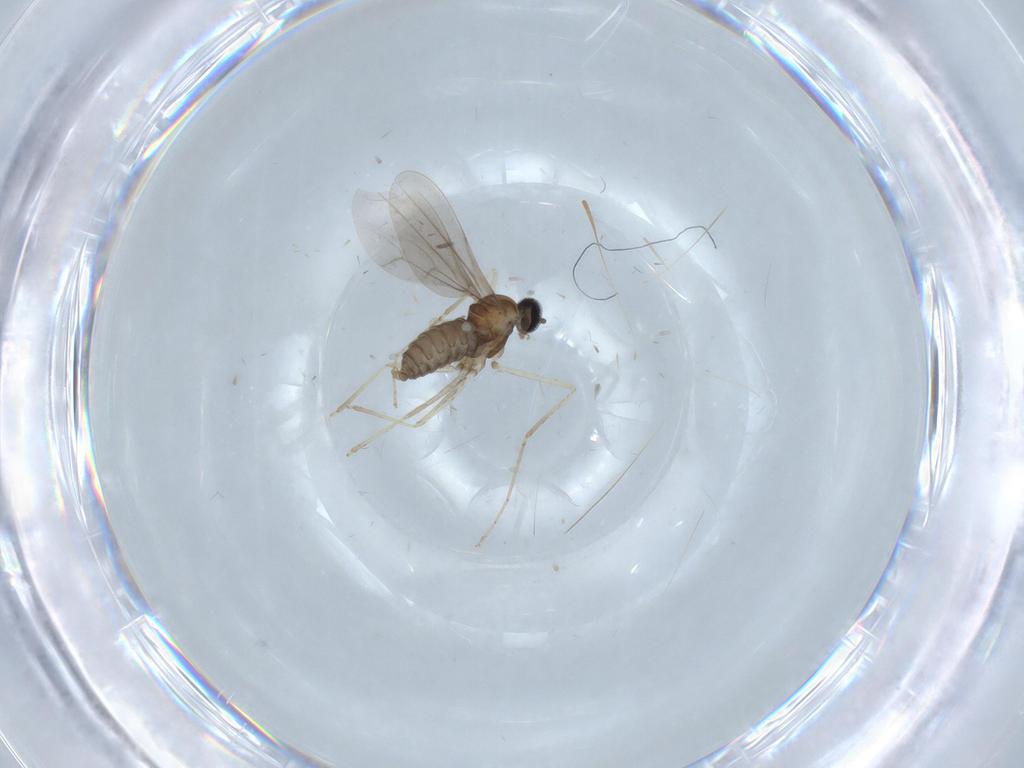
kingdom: Animalia
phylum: Arthropoda
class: Insecta
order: Diptera
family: Cecidomyiidae
